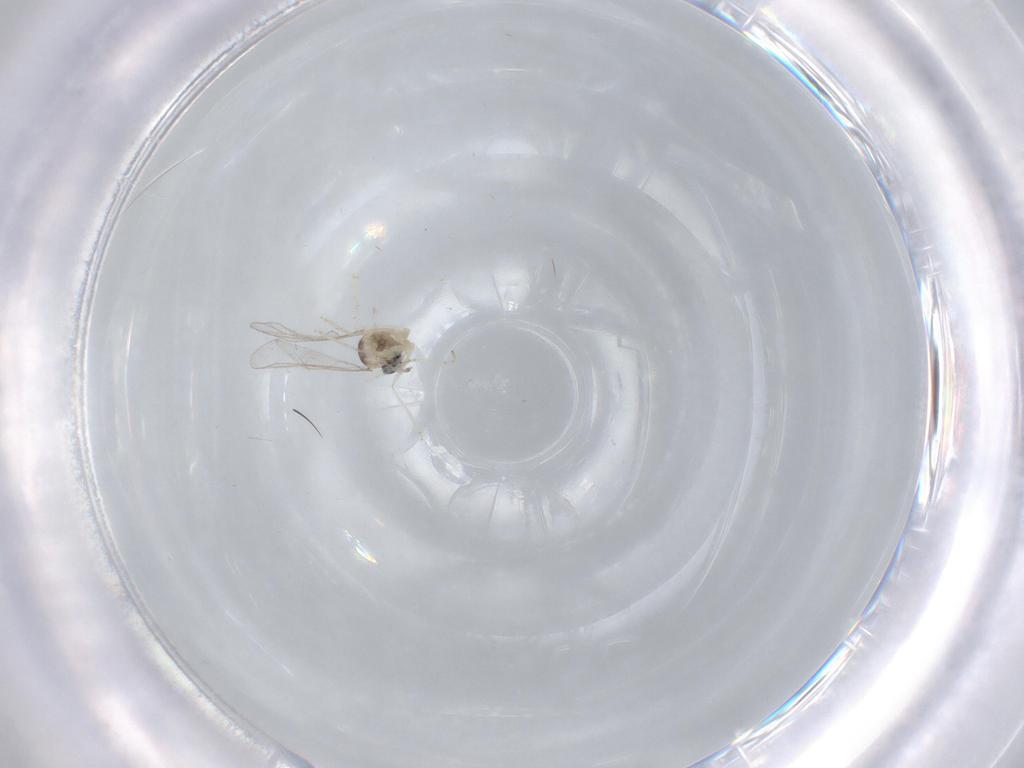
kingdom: Animalia
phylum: Arthropoda
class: Insecta
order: Diptera
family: Cecidomyiidae
